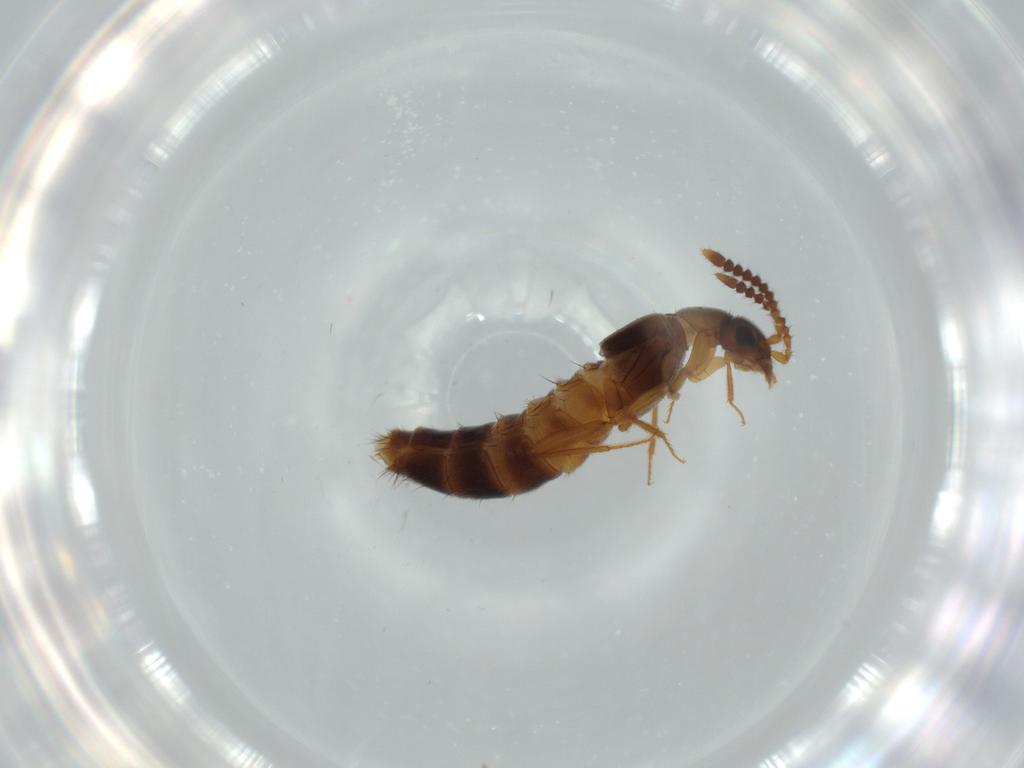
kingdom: Animalia
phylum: Arthropoda
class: Insecta
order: Coleoptera
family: Staphylinidae
